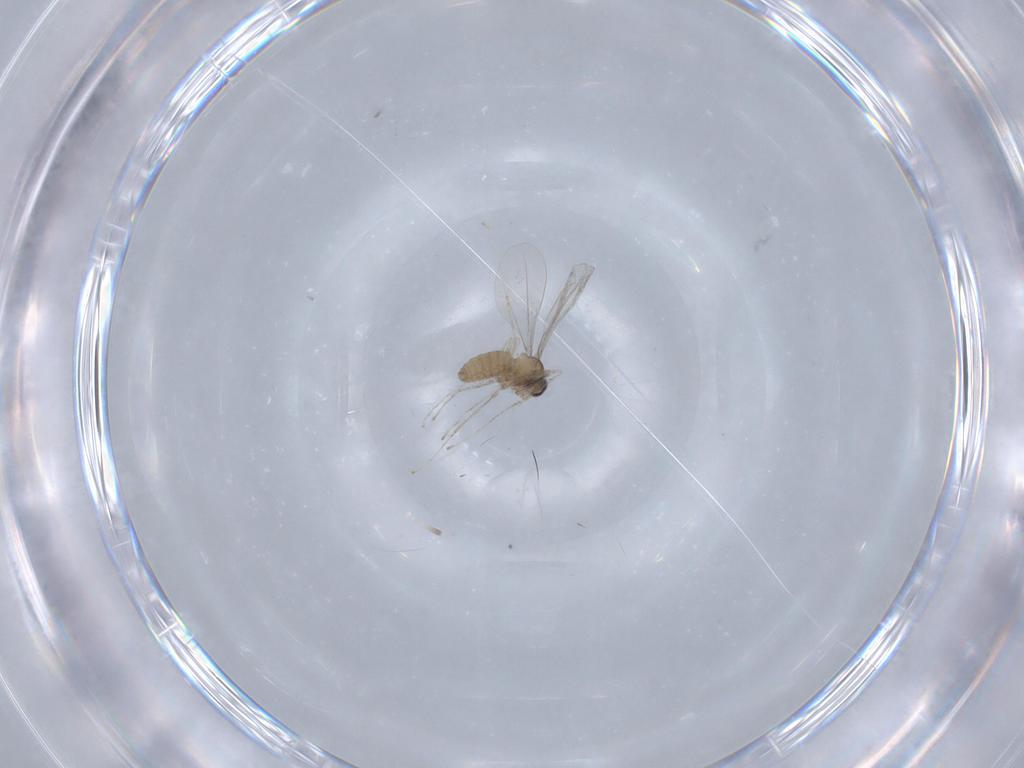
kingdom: Animalia
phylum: Arthropoda
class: Insecta
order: Diptera
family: Cecidomyiidae
